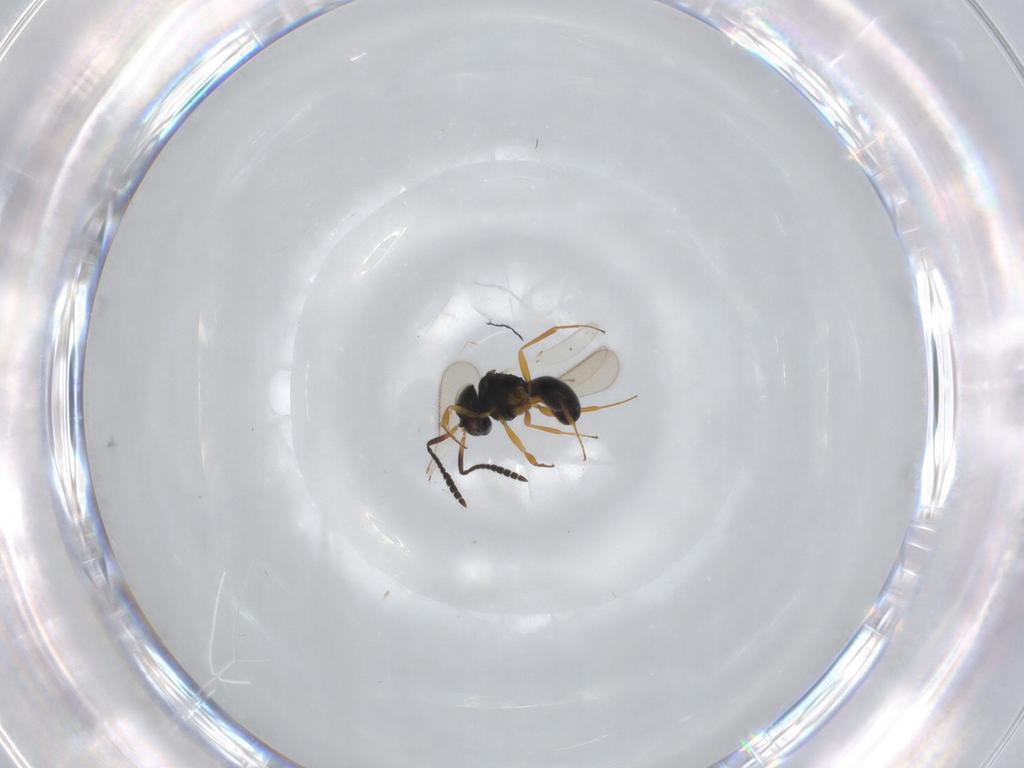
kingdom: Animalia
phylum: Arthropoda
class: Insecta
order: Hymenoptera
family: Scelionidae
